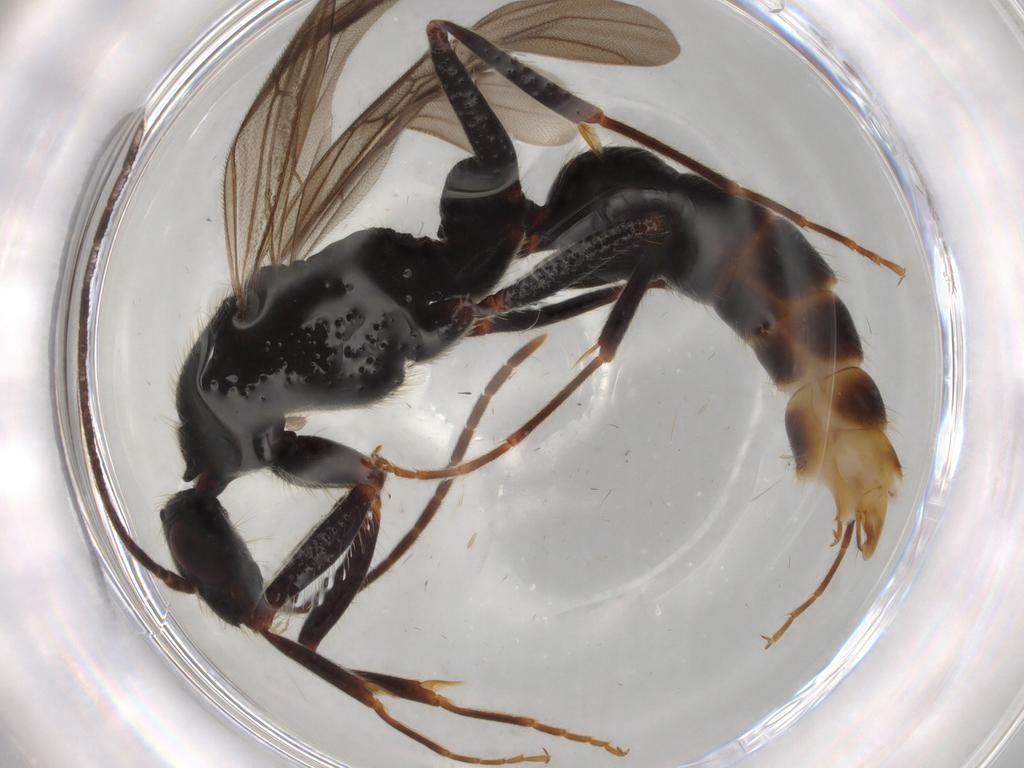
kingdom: Animalia
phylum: Arthropoda
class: Insecta
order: Hymenoptera
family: Formicidae
